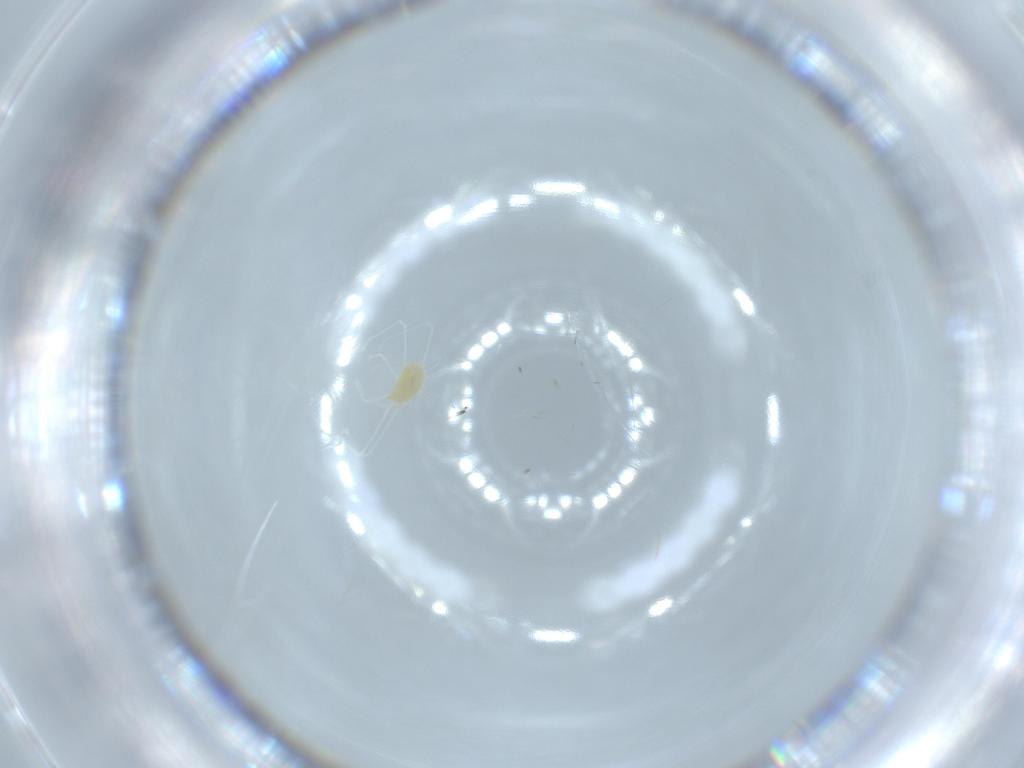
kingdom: Animalia
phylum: Arthropoda
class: Arachnida
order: Trombidiformes
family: Tetranychidae
